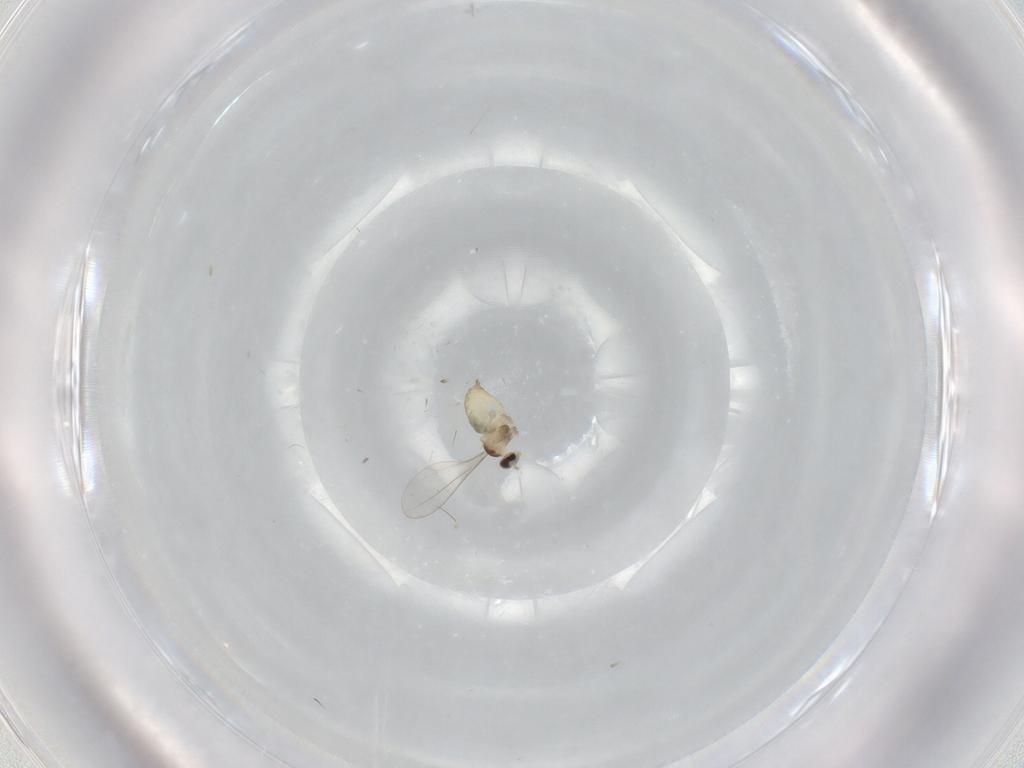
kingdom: Animalia
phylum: Arthropoda
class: Insecta
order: Diptera
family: Cecidomyiidae
